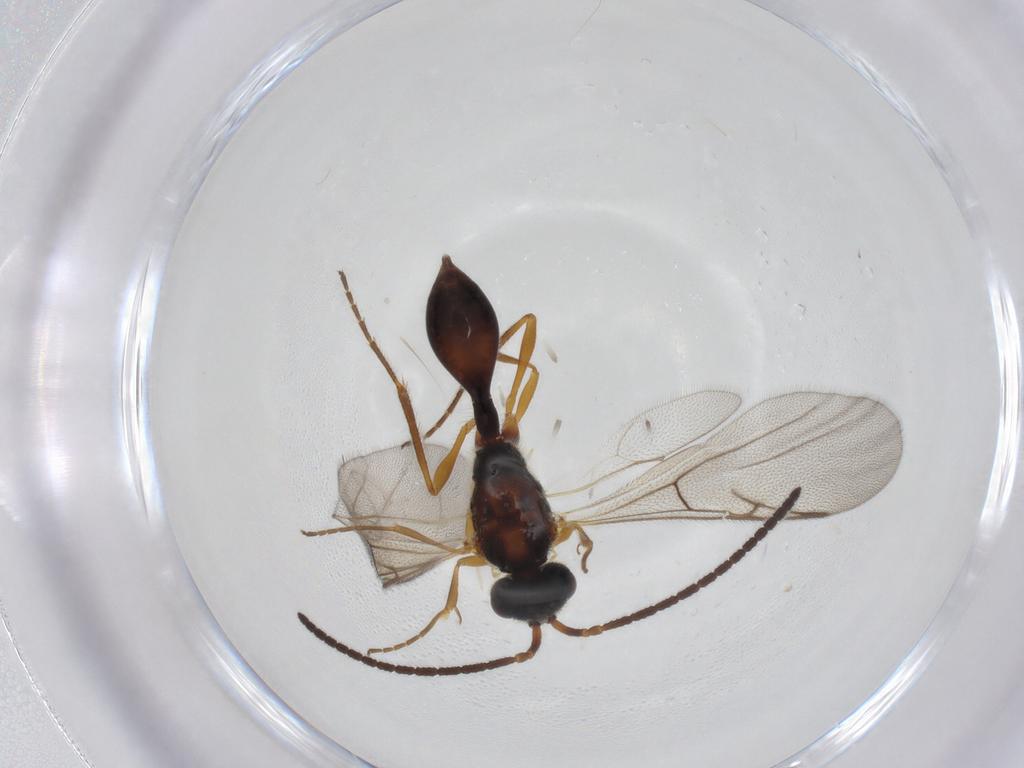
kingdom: Animalia
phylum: Arthropoda
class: Insecta
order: Hymenoptera
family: Diapriidae
